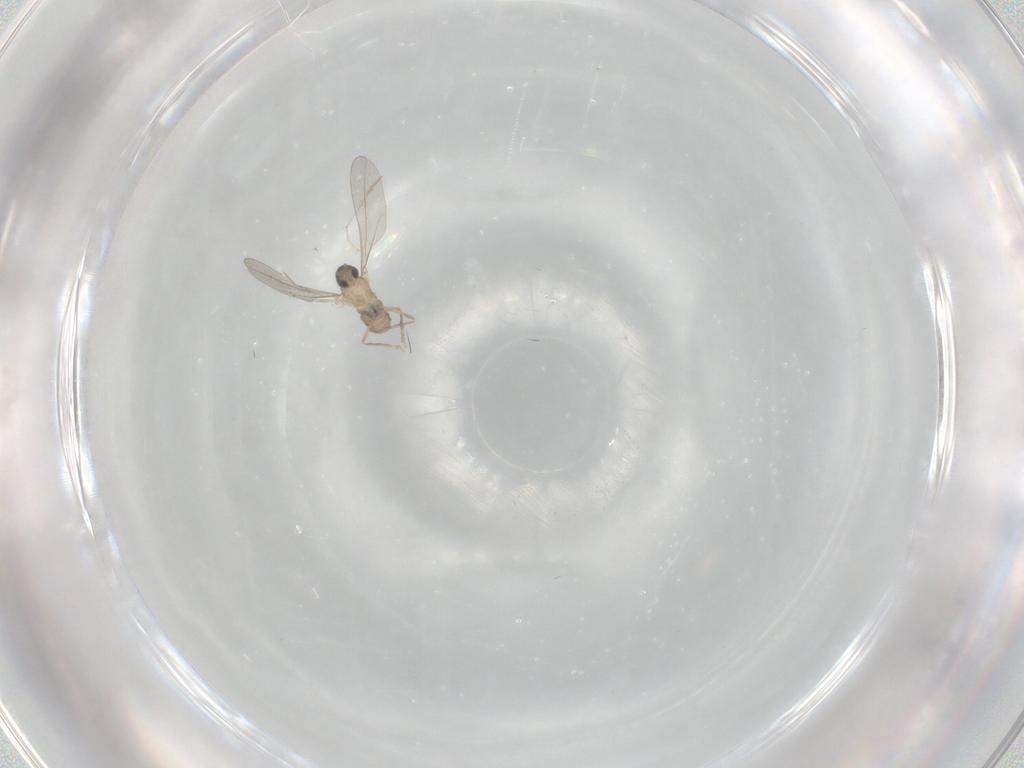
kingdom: Animalia
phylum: Arthropoda
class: Insecta
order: Diptera
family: Cecidomyiidae
